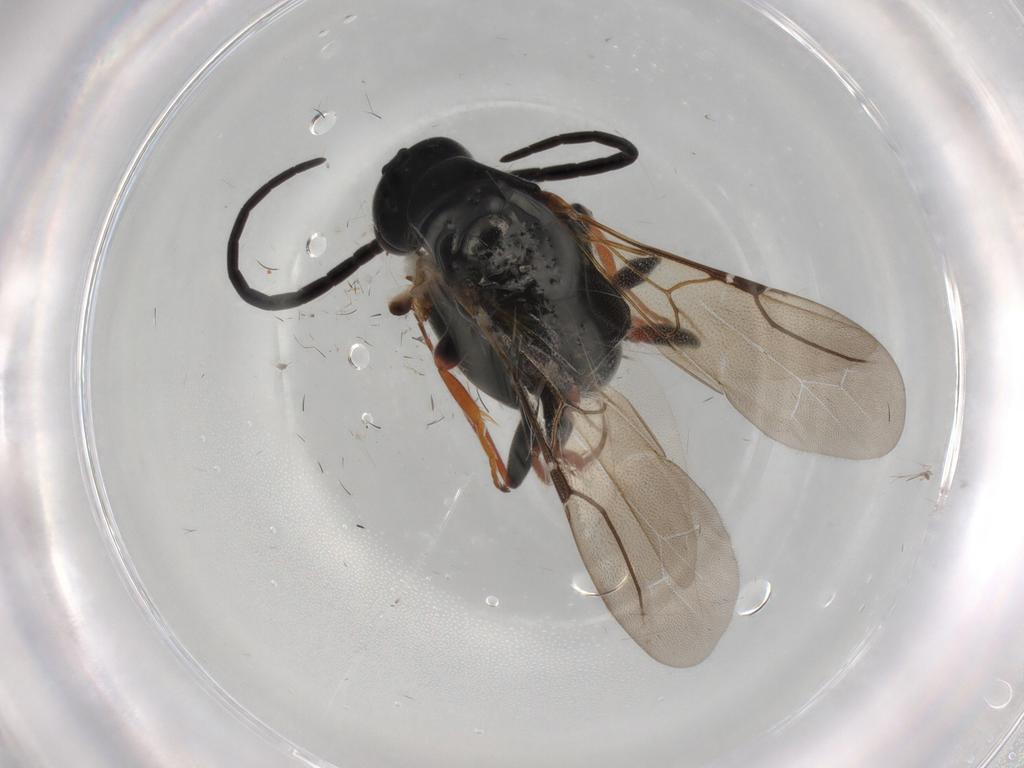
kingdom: Animalia
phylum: Arthropoda
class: Insecta
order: Hymenoptera
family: Bethylidae
